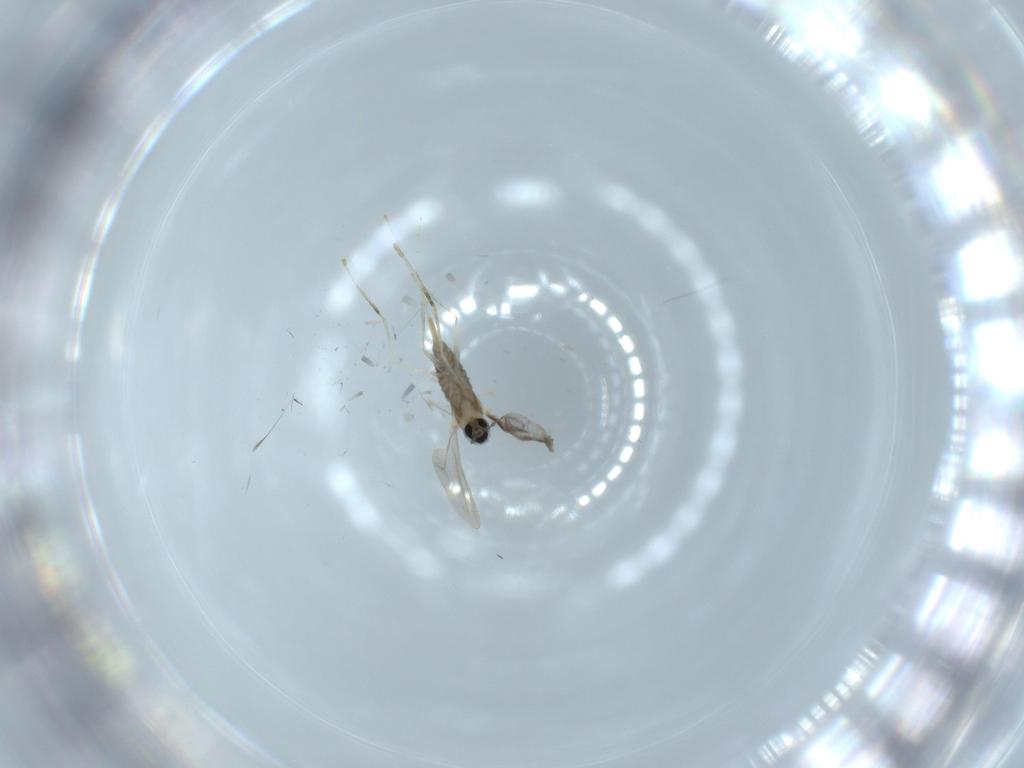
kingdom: Animalia
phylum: Arthropoda
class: Insecta
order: Diptera
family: Cecidomyiidae
